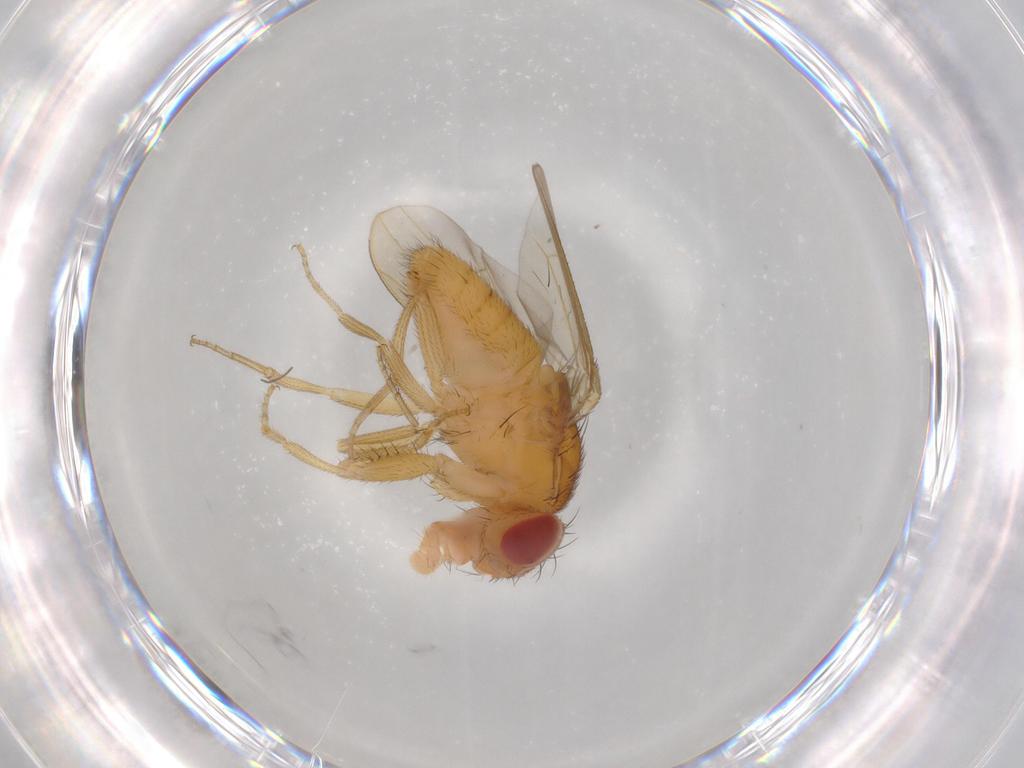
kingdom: Animalia
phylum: Arthropoda
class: Insecta
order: Diptera
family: Drosophilidae
